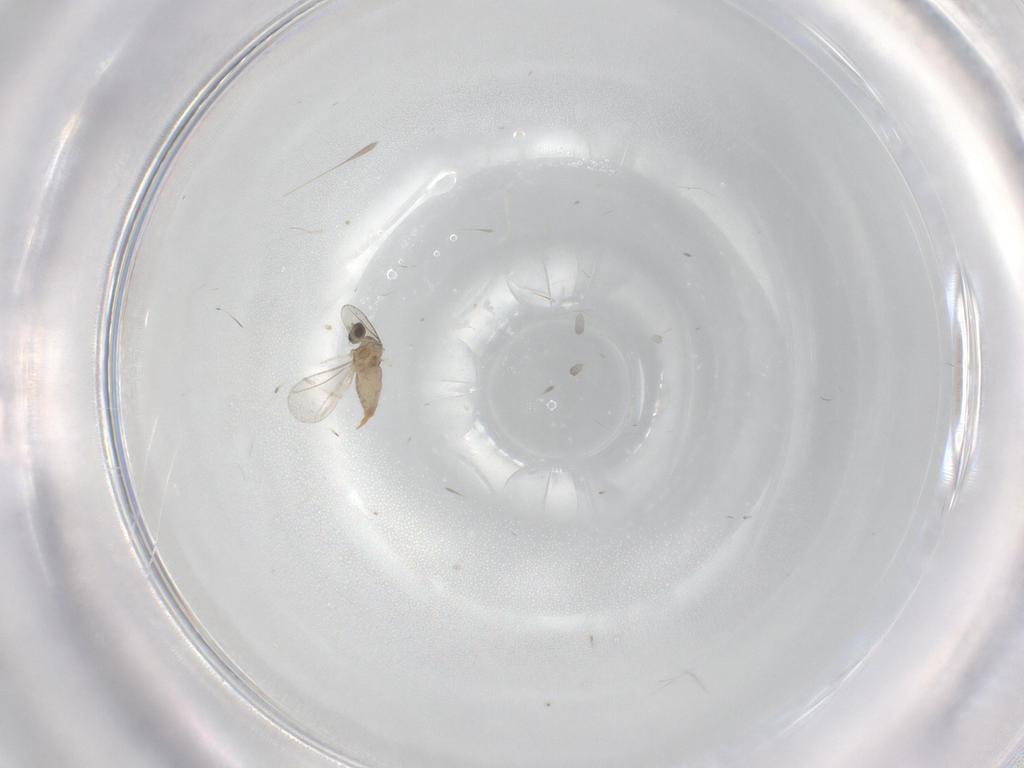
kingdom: Animalia
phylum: Arthropoda
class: Insecta
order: Diptera
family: Cecidomyiidae
